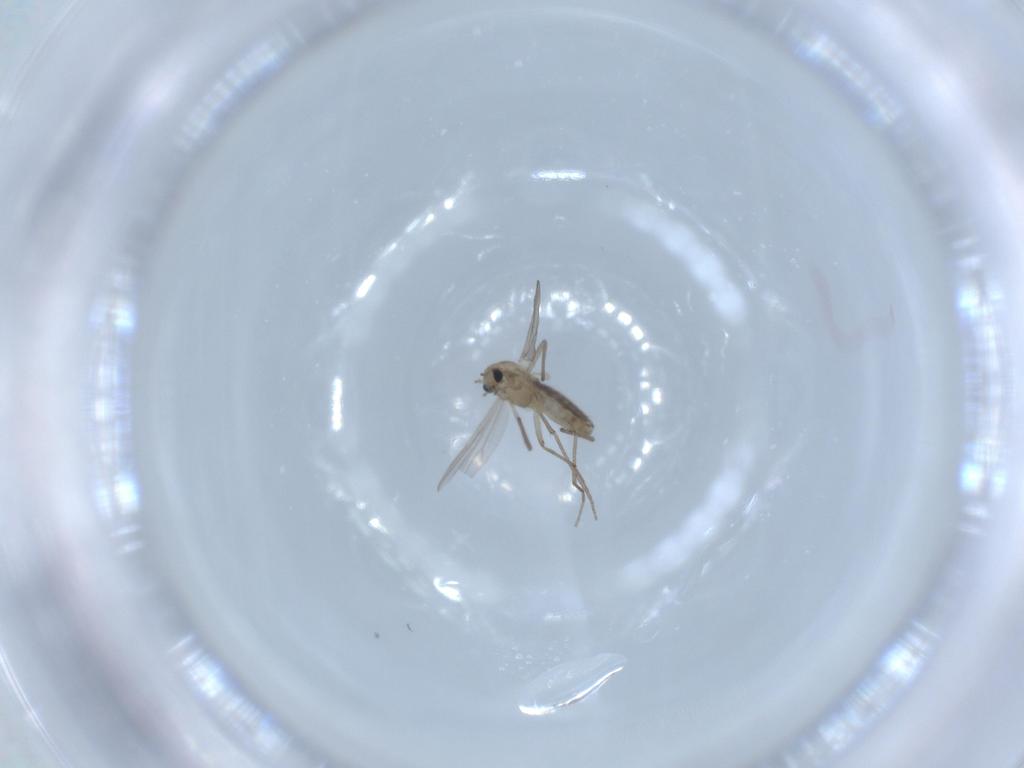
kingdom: Animalia
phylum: Arthropoda
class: Insecta
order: Diptera
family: Chironomidae
